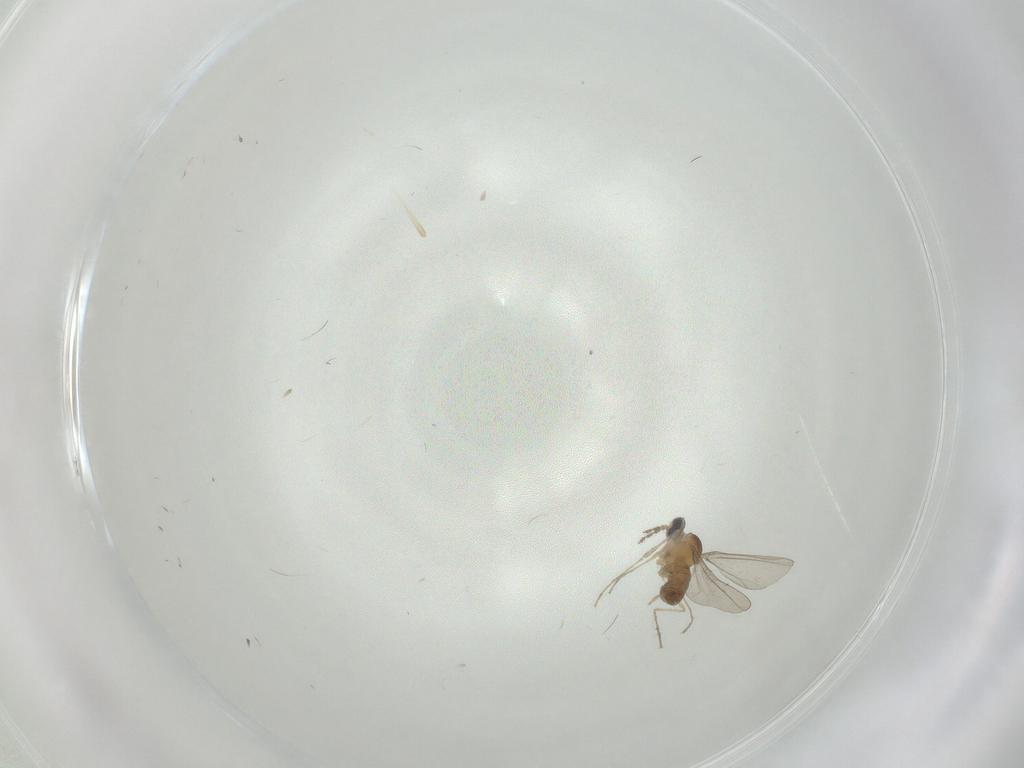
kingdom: Animalia
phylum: Arthropoda
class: Insecta
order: Diptera
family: Cecidomyiidae
